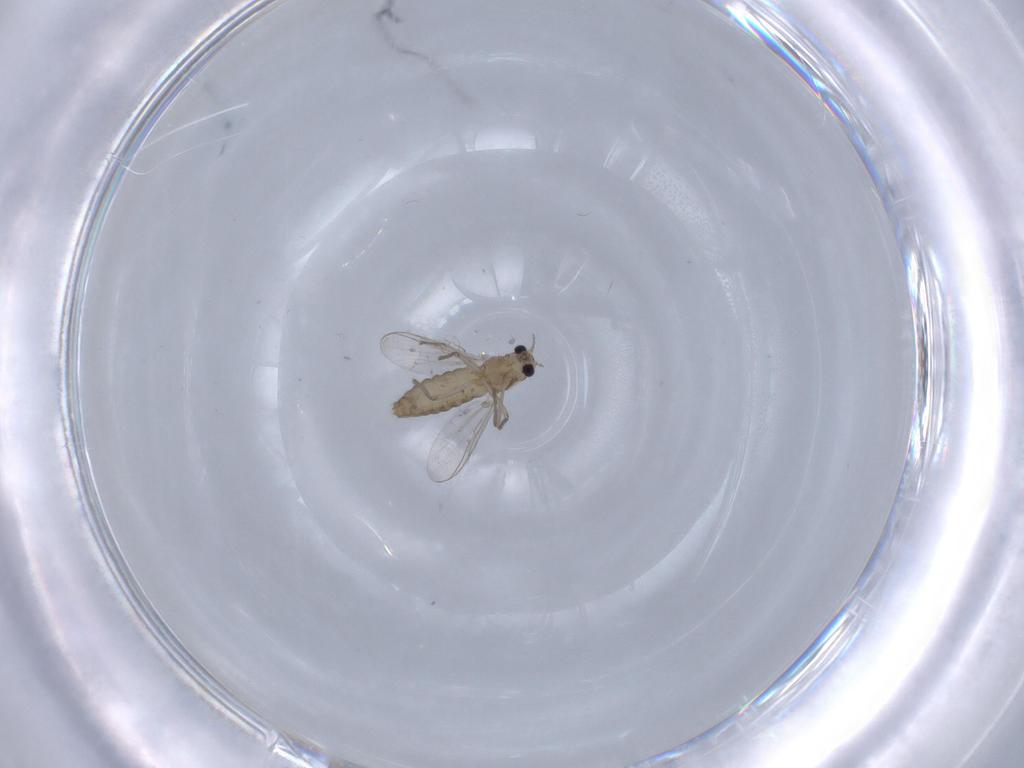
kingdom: Animalia
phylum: Arthropoda
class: Insecta
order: Diptera
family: Chironomidae
